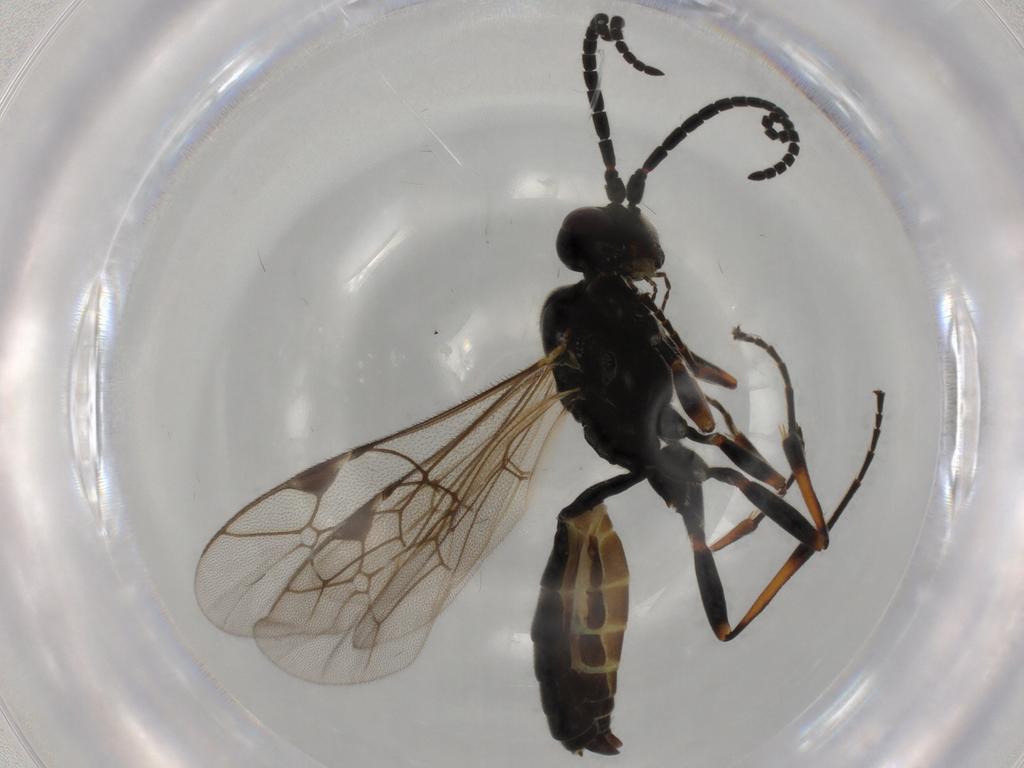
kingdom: Animalia
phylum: Arthropoda
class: Insecta
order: Hymenoptera
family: Ichneumonidae
